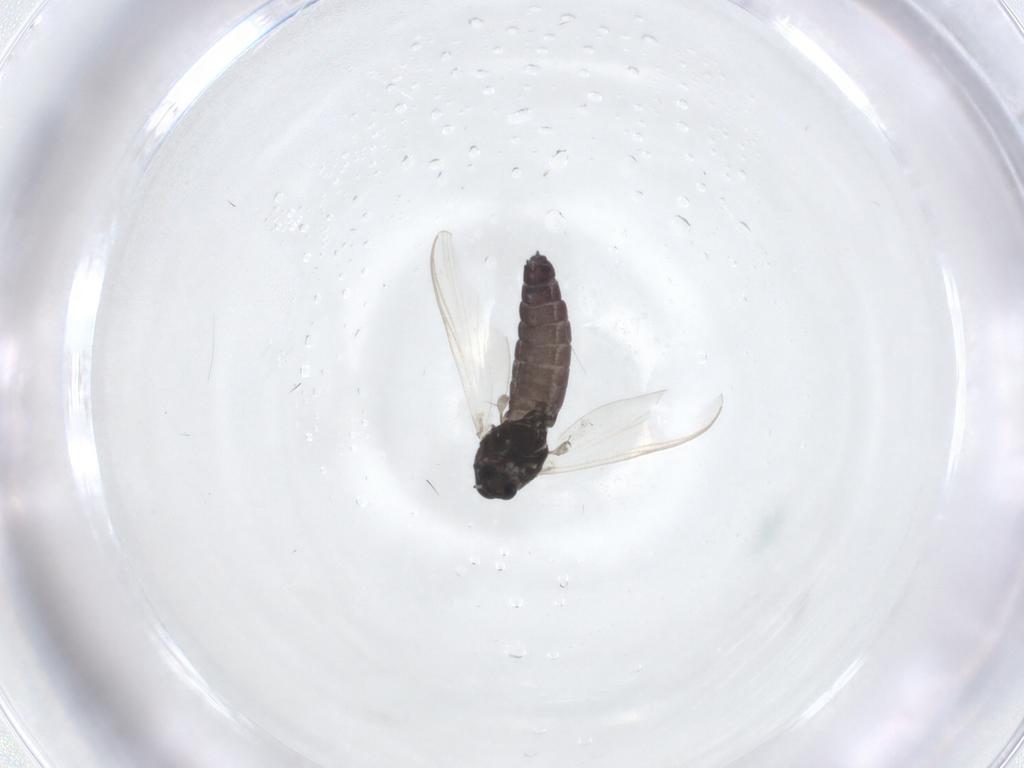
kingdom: Animalia
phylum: Arthropoda
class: Insecta
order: Diptera
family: Chironomidae
